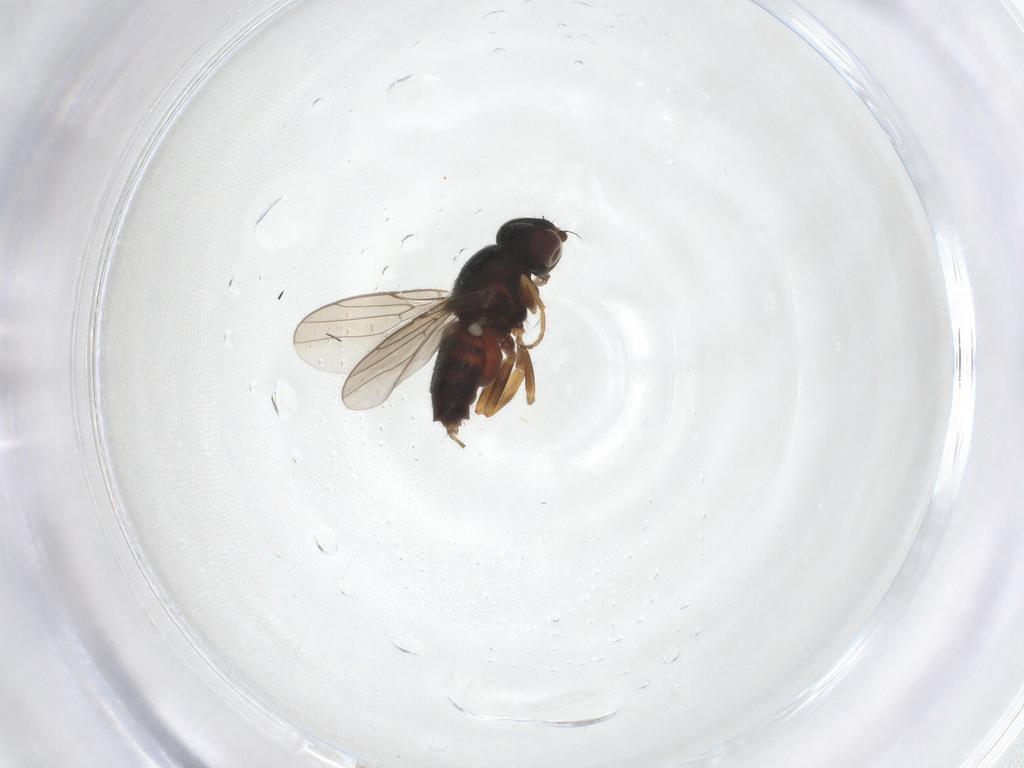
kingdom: Animalia
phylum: Arthropoda
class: Insecta
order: Diptera
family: Chloropidae
